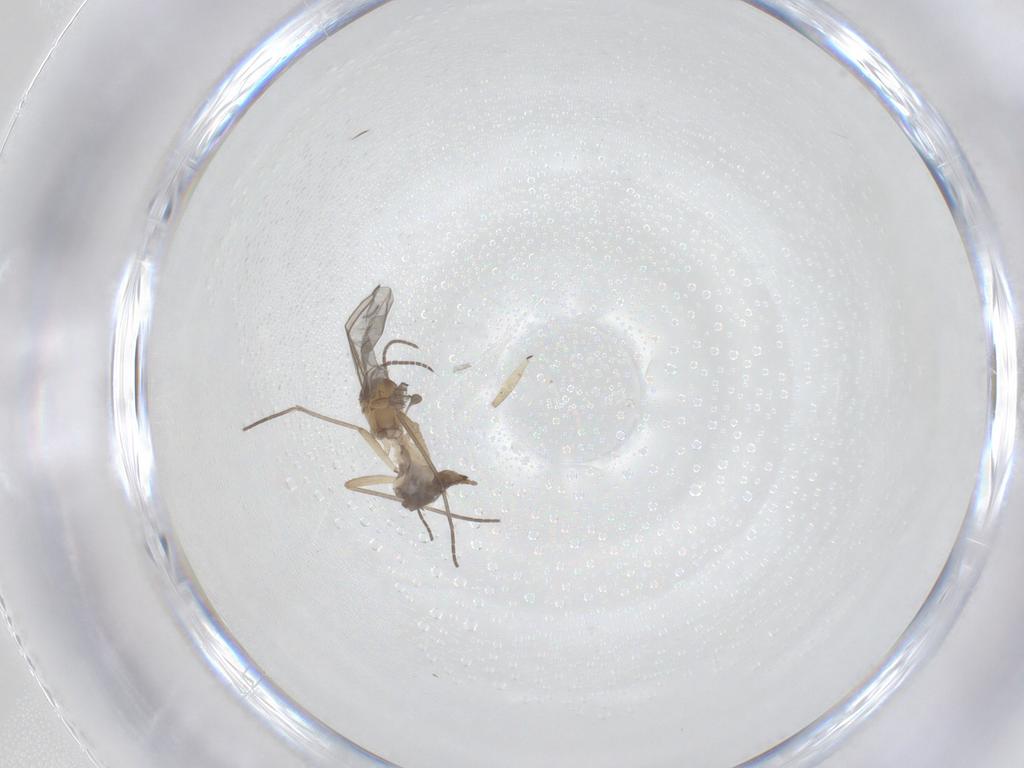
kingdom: Animalia
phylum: Arthropoda
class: Insecta
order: Diptera
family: Sciaridae
